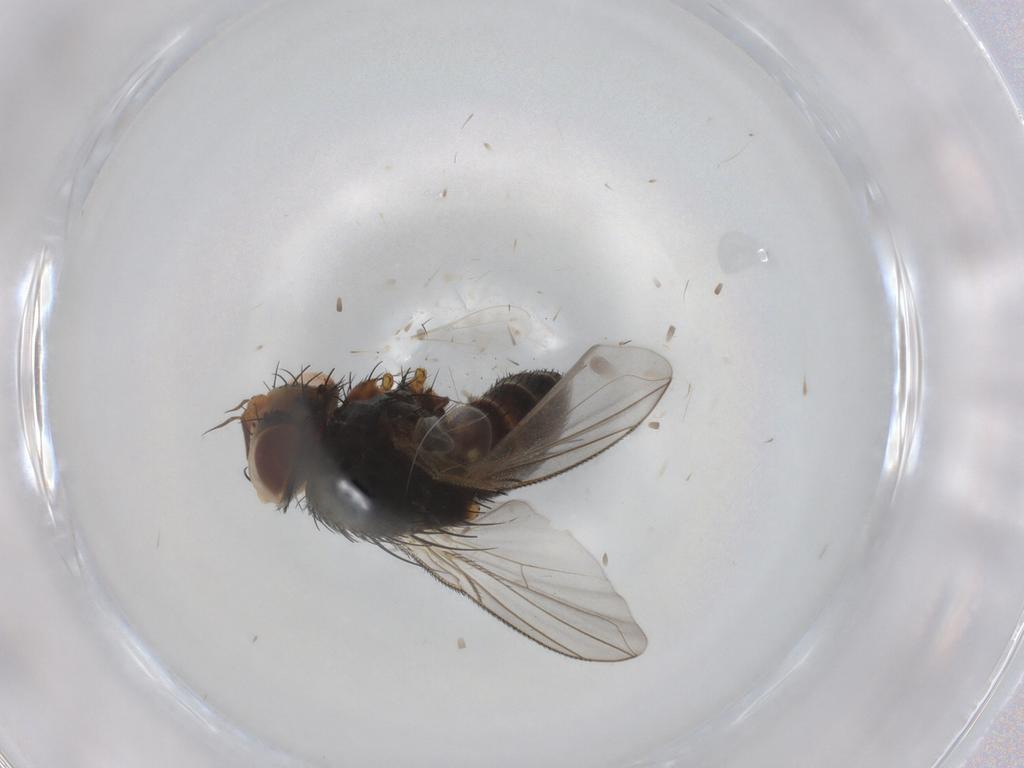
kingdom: Animalia
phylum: Arthropoda
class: Insecta
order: Diptera
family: Tachinidae
